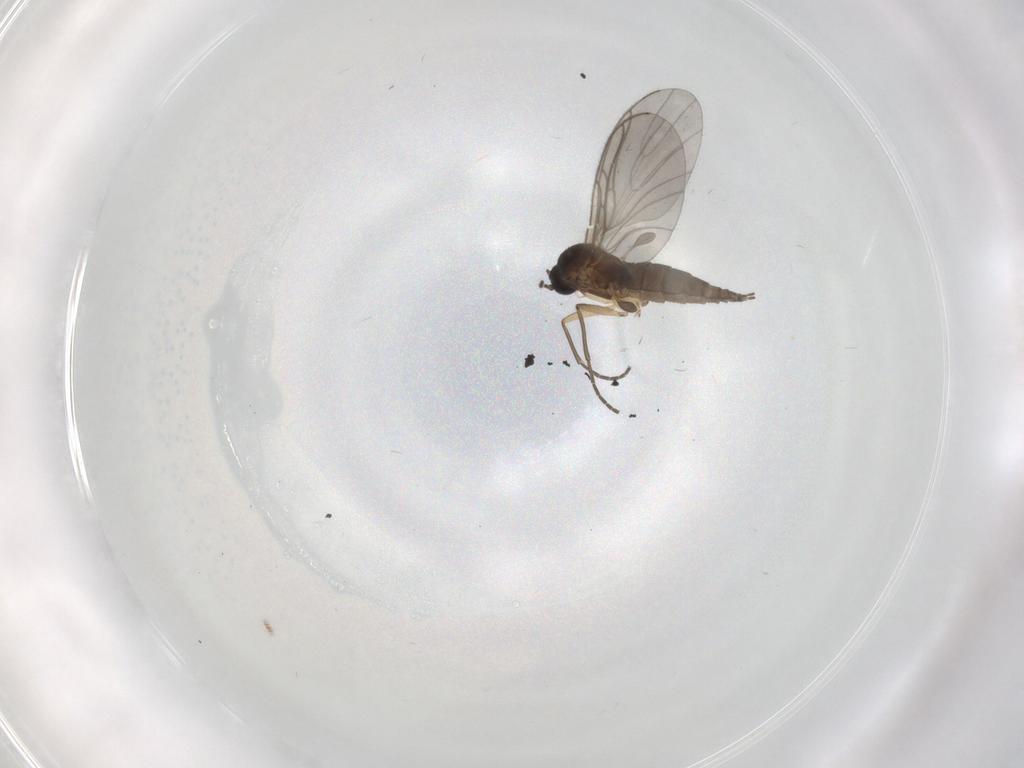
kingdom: Animalia
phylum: Arthropoda
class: Insecta
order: Diptera
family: Sciaridae
